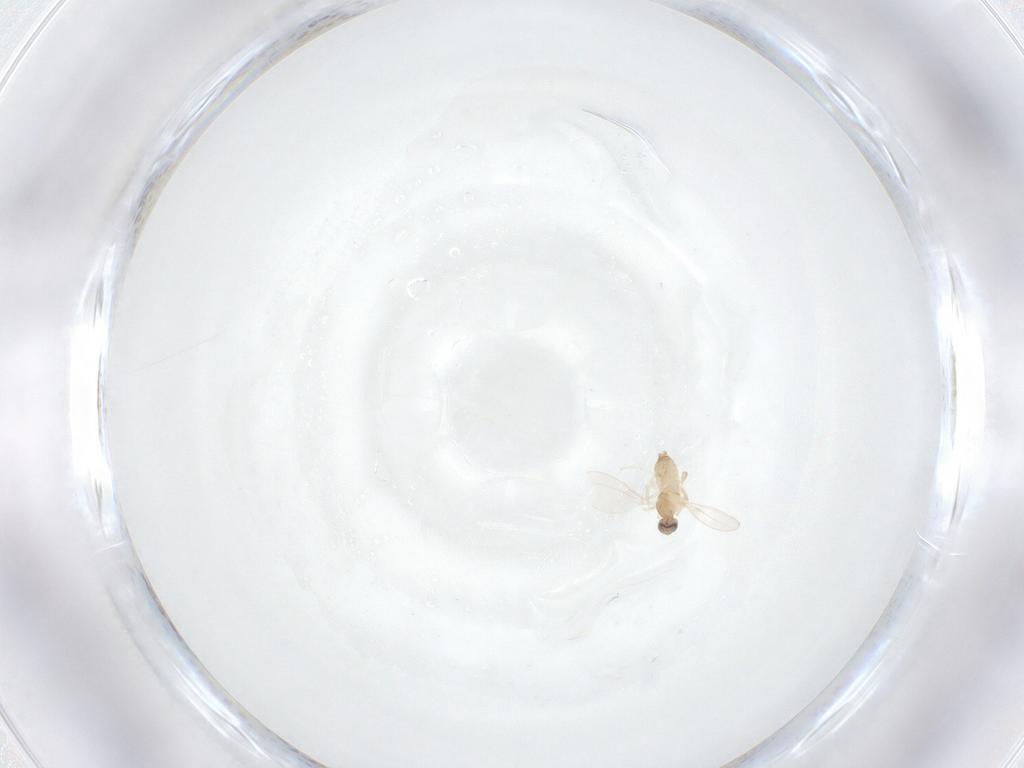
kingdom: Animalia
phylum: Arthropoda
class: Insecta
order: Diptera
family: Cecidomyiidae
